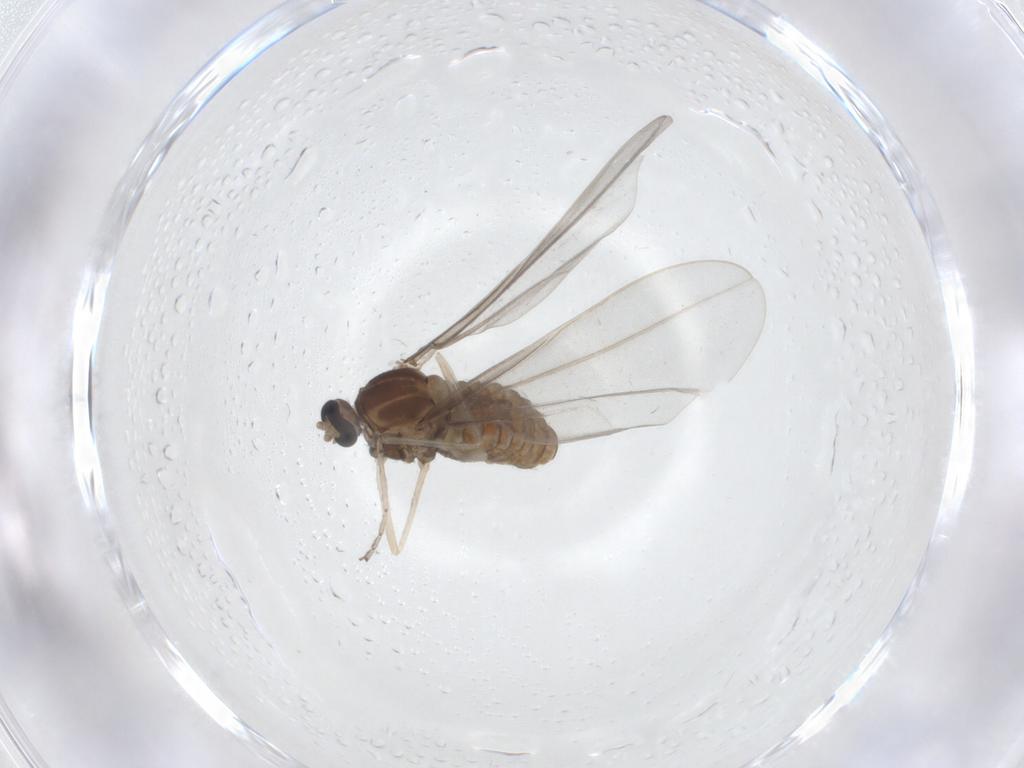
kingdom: Animalia
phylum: Arthropoda
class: Insecta
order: Diptera
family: Cecidomyiidae
